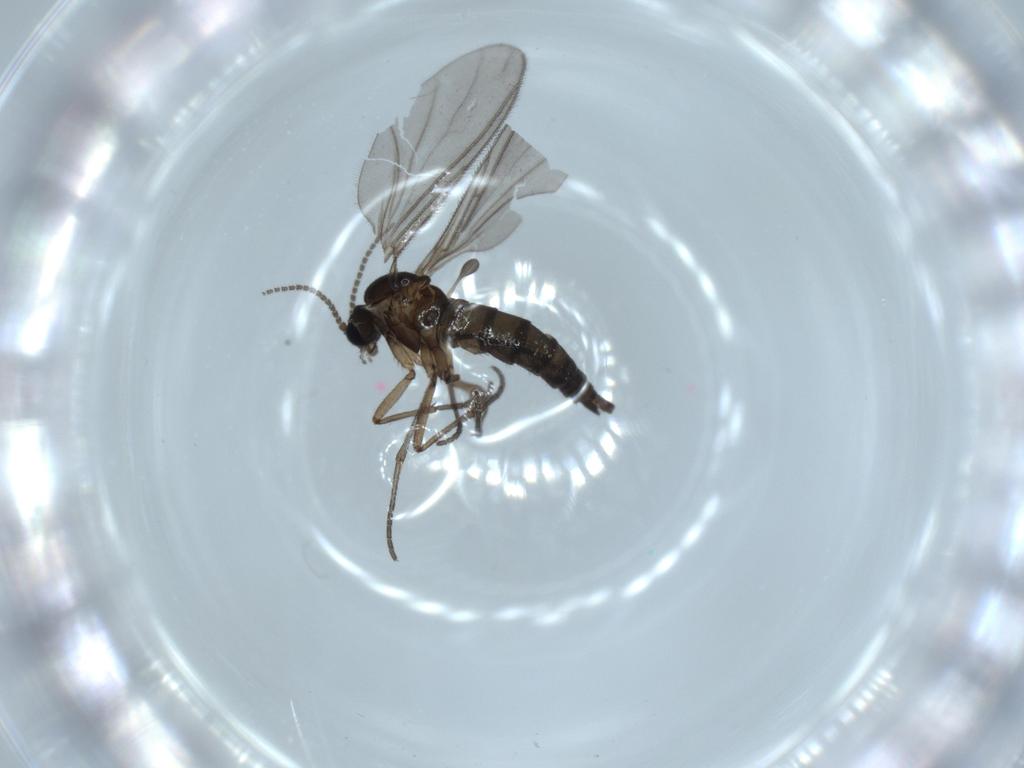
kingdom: Animalia
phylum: Arthropoda
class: Insecta
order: Diptera
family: Sciaridae
